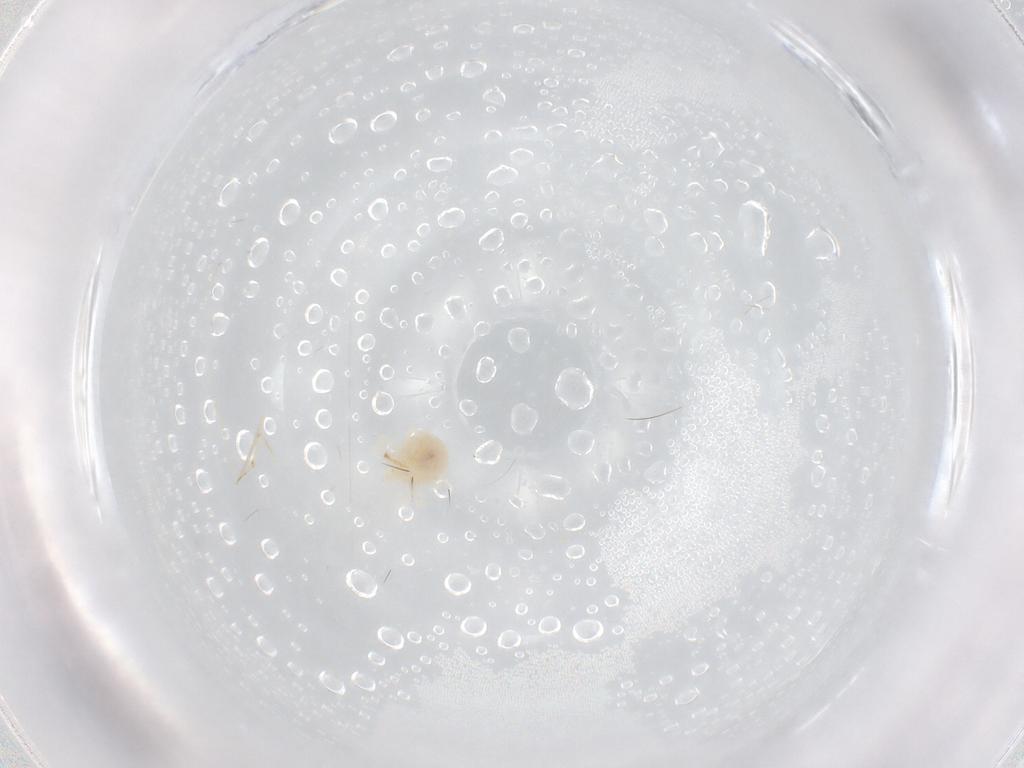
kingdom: Animalia
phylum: Arthropoda
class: Arachnida
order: Trombidiformes
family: Anystidae
